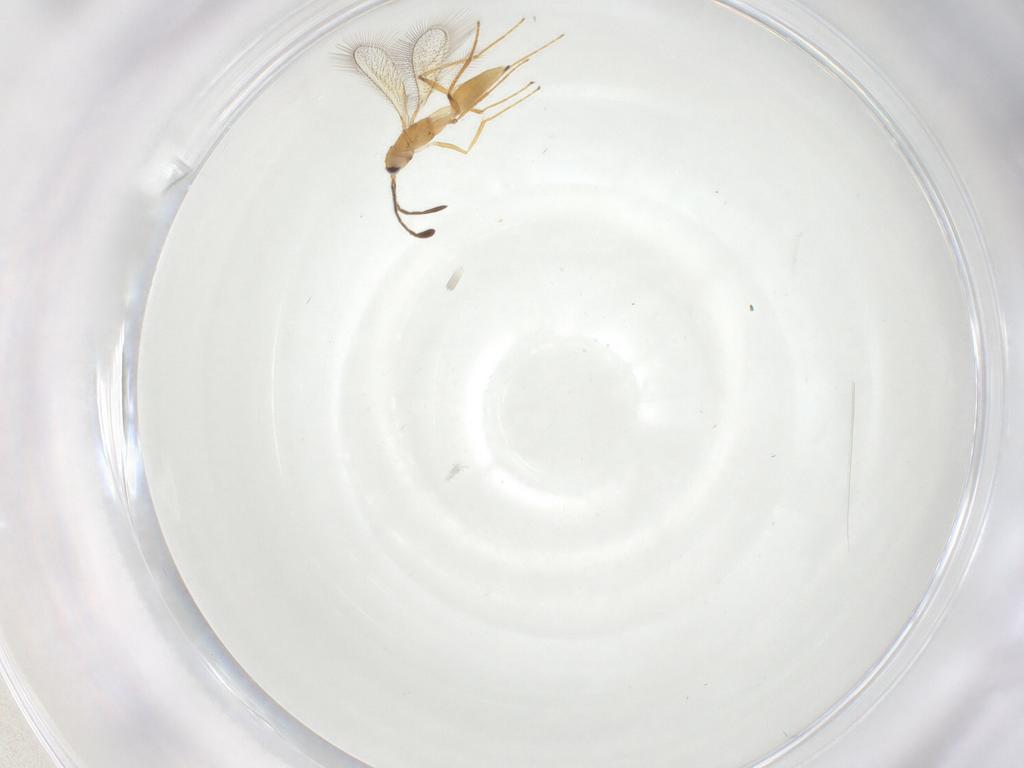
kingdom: Animalia
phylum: Arthropoda
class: Insecta
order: Hymenoptera
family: Mymaridae
